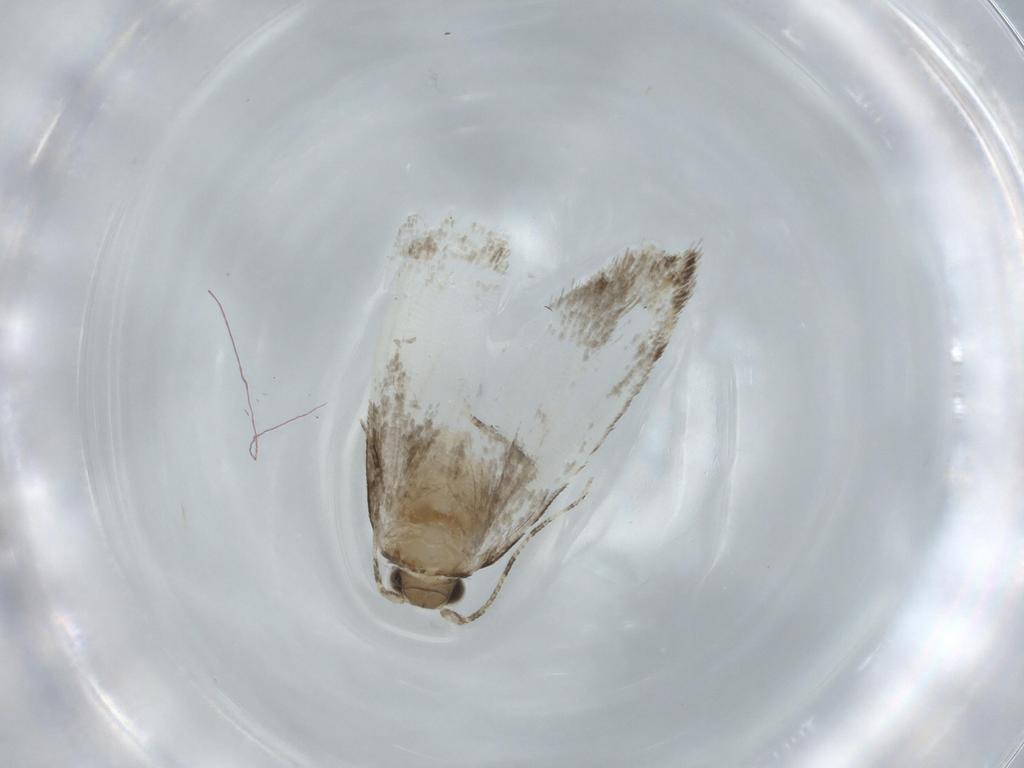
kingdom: Animalia
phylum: Arthropoda
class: Insecta
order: Lepidoptera
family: Tineidae
